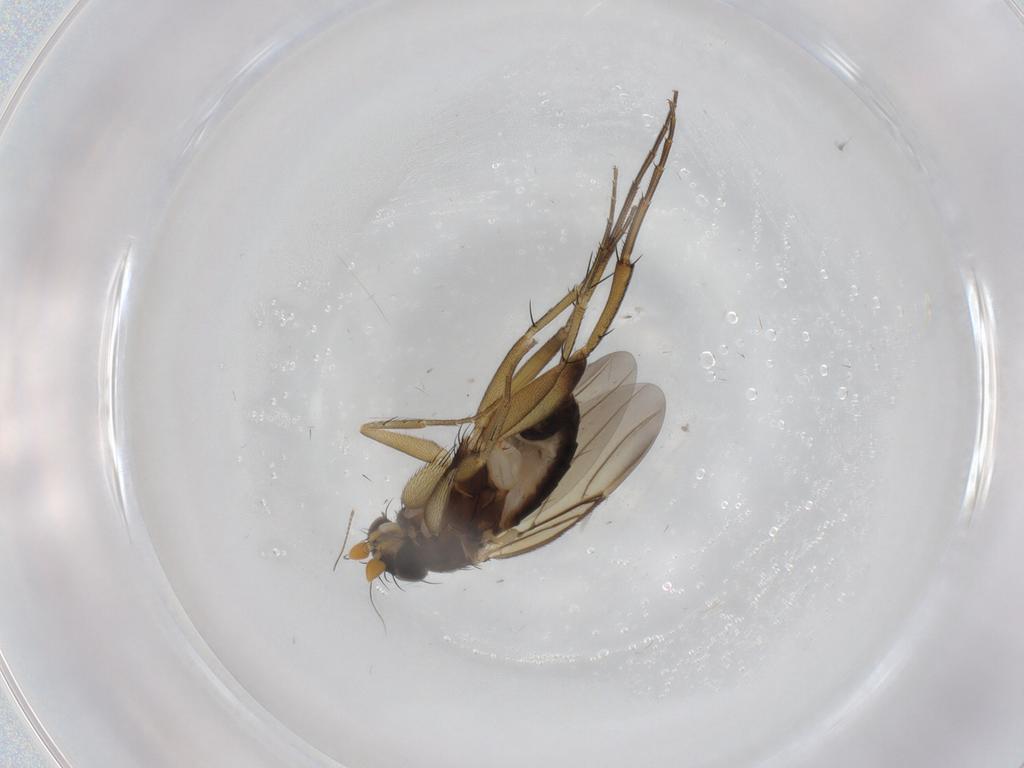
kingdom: Animalia
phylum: Arthropoda
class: Insecta
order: Diptera
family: Phoridae
